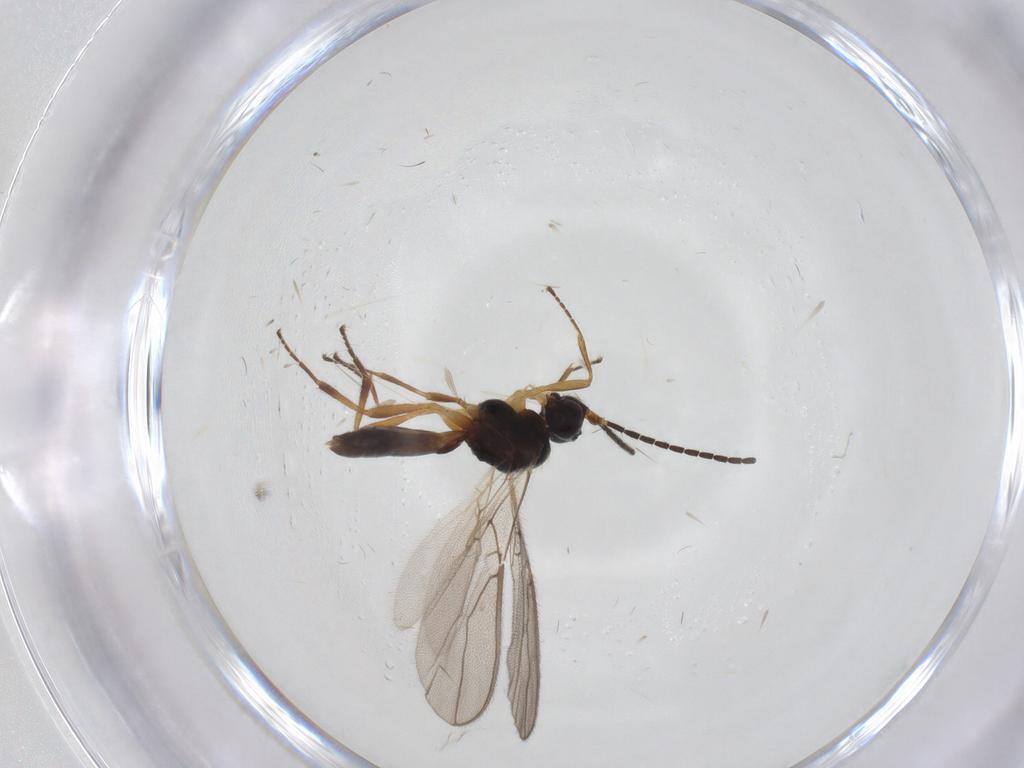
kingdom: Animalia
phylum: Arthropoda
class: Insecta
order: Hymenoptera
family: Braconidae
